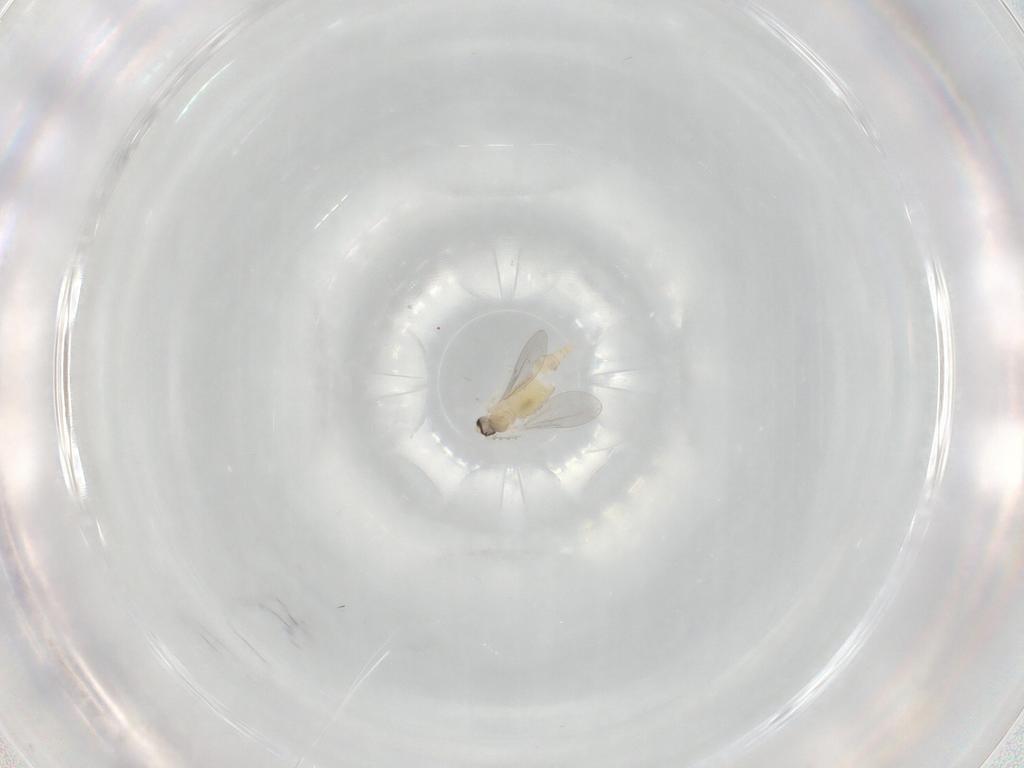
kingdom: Animalia
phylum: Arthropoda
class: Insecta
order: Diptera
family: Cecidomyiidae
